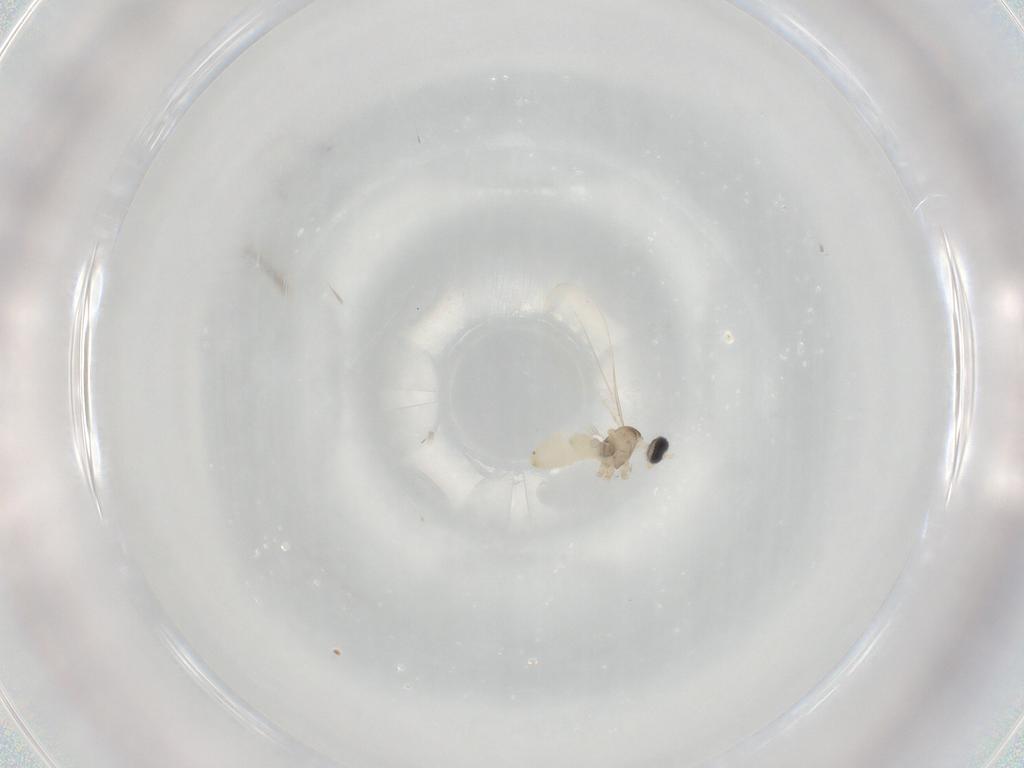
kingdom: Animalia
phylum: Arthropoda
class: Insecta
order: Diptera
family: Cecidomyiidae
